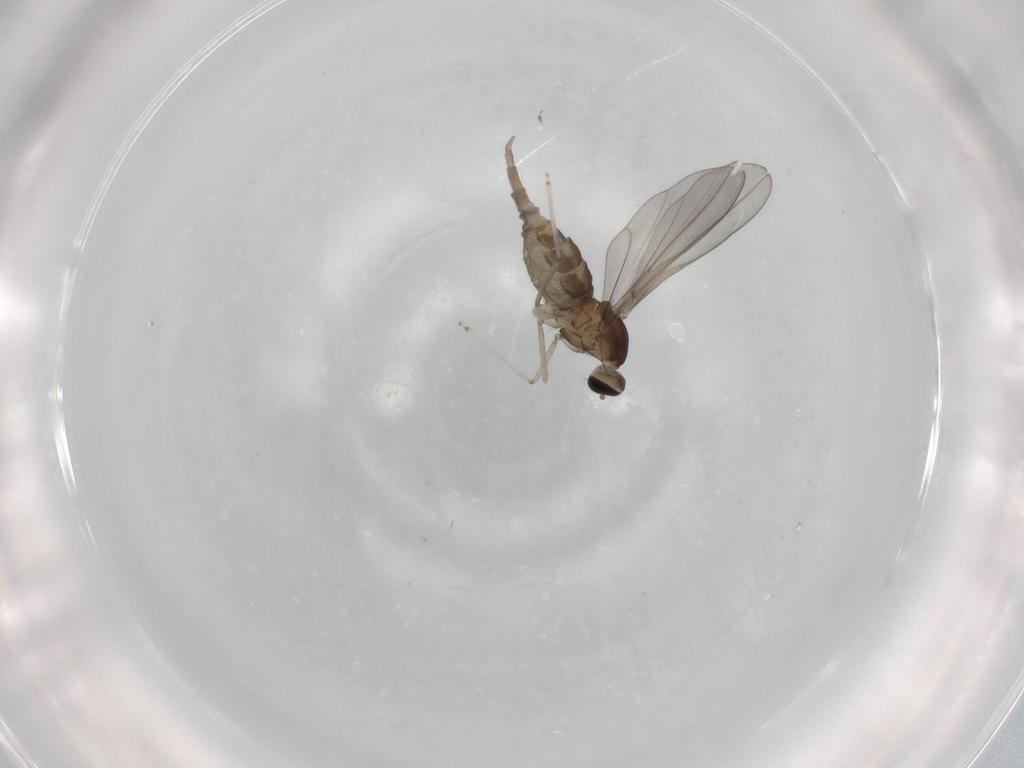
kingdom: Animalia
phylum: Arthropoda
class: Insecta
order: Diptera
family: Cecidomyiidae
